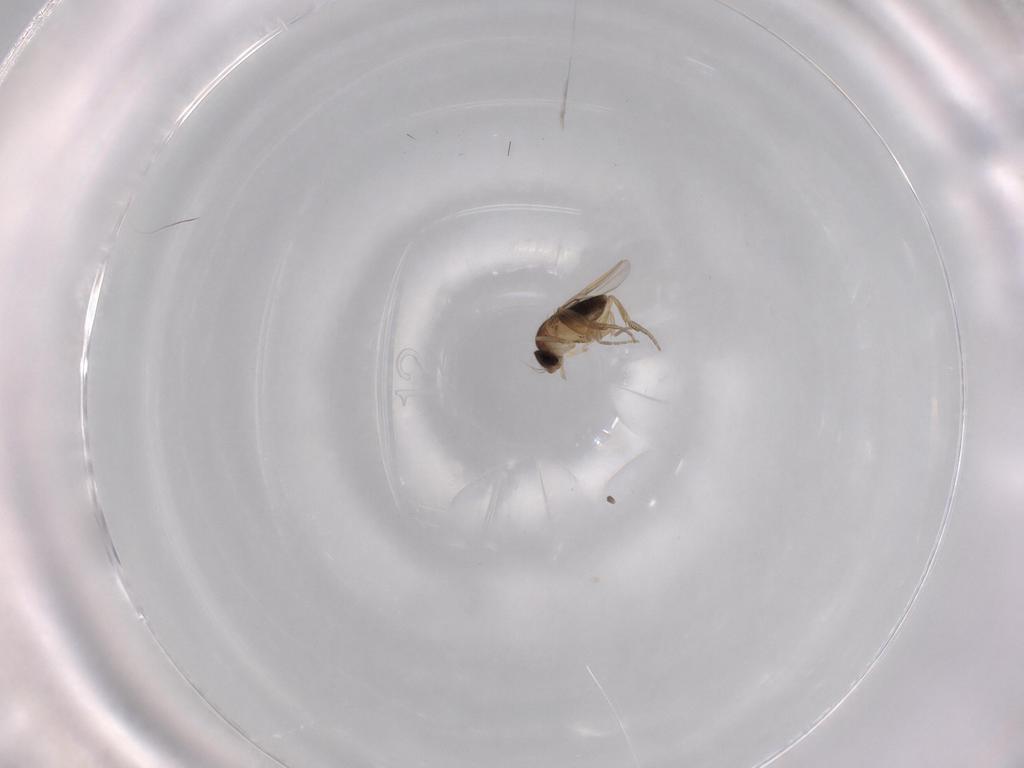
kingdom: Animalia
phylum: Arthropoda
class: Insecta
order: Diptera
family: Phoridae
